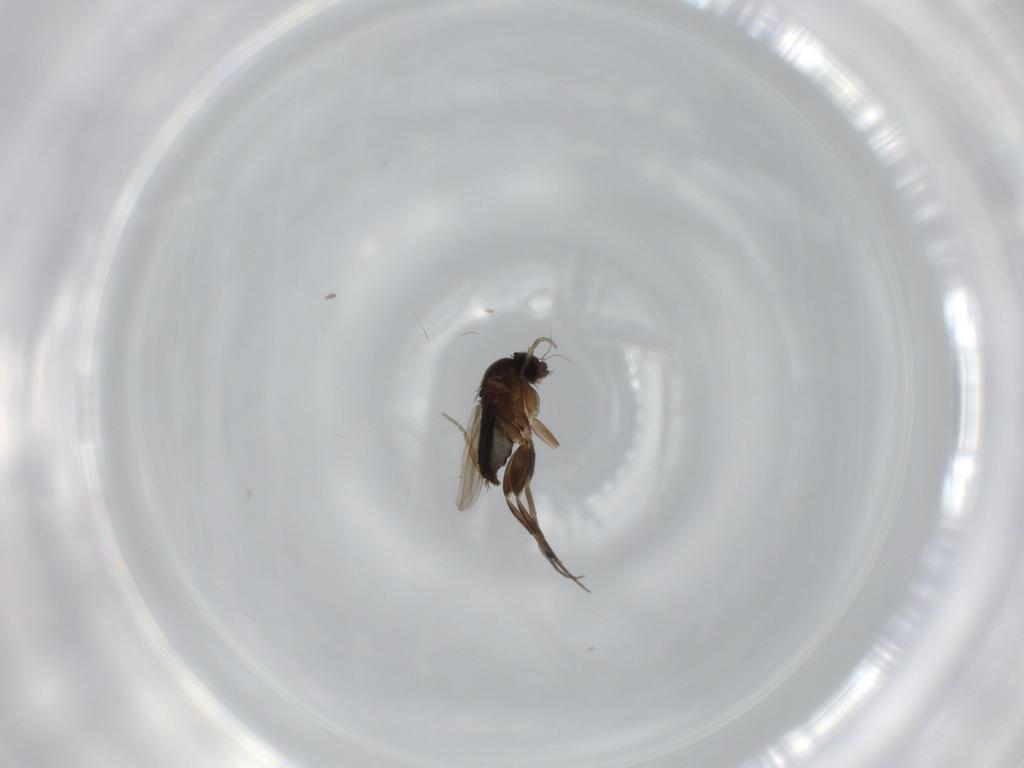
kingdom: Animalia
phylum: Arthropoda
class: Insecta
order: Diptera
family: Phoridae
